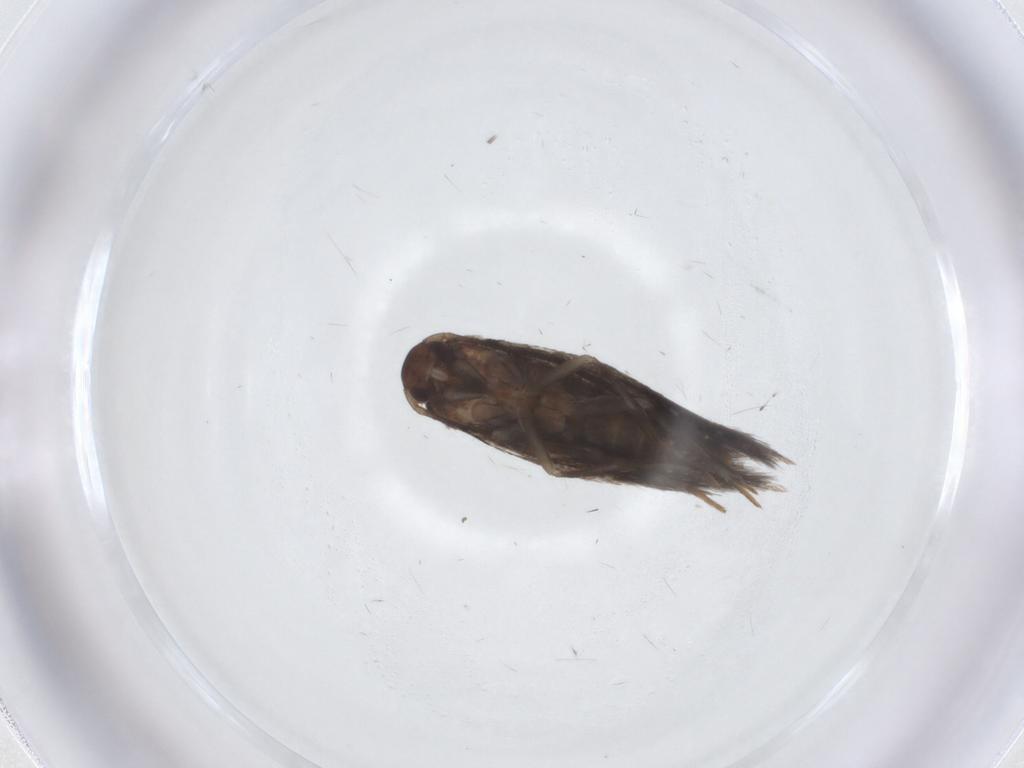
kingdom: Animalia
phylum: Arthropoda
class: Insecta
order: Lepidoptera
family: Elachistidae
